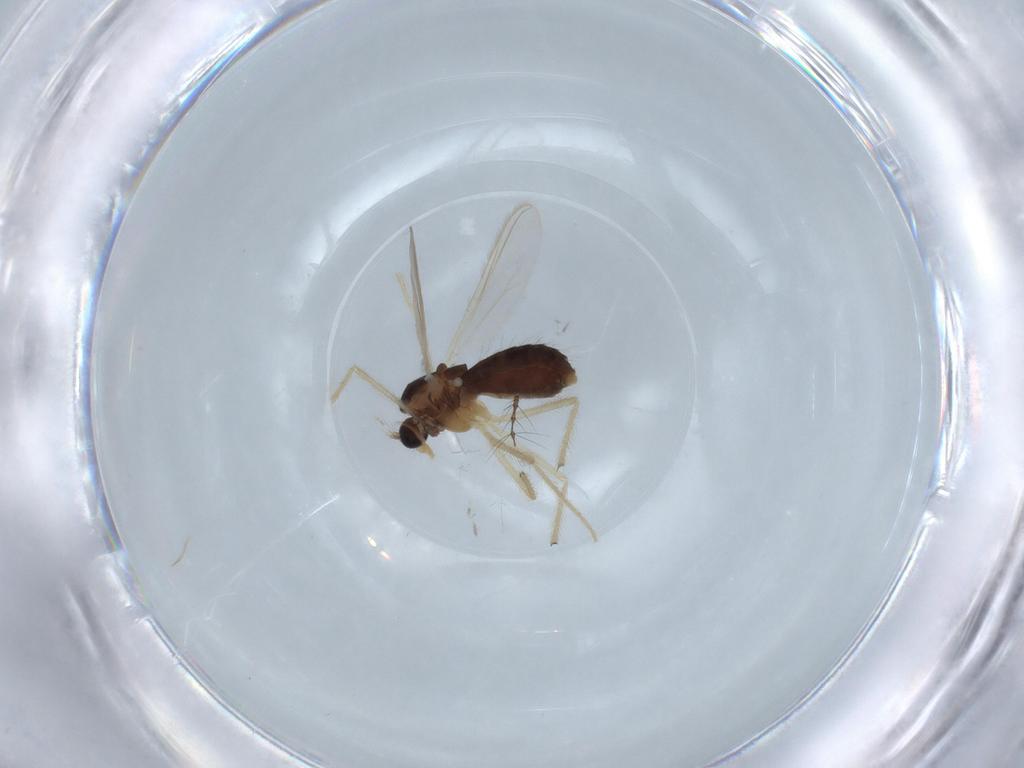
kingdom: Animalia
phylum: Arthropoda
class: Insecta
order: Diptera
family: Chironomidae
